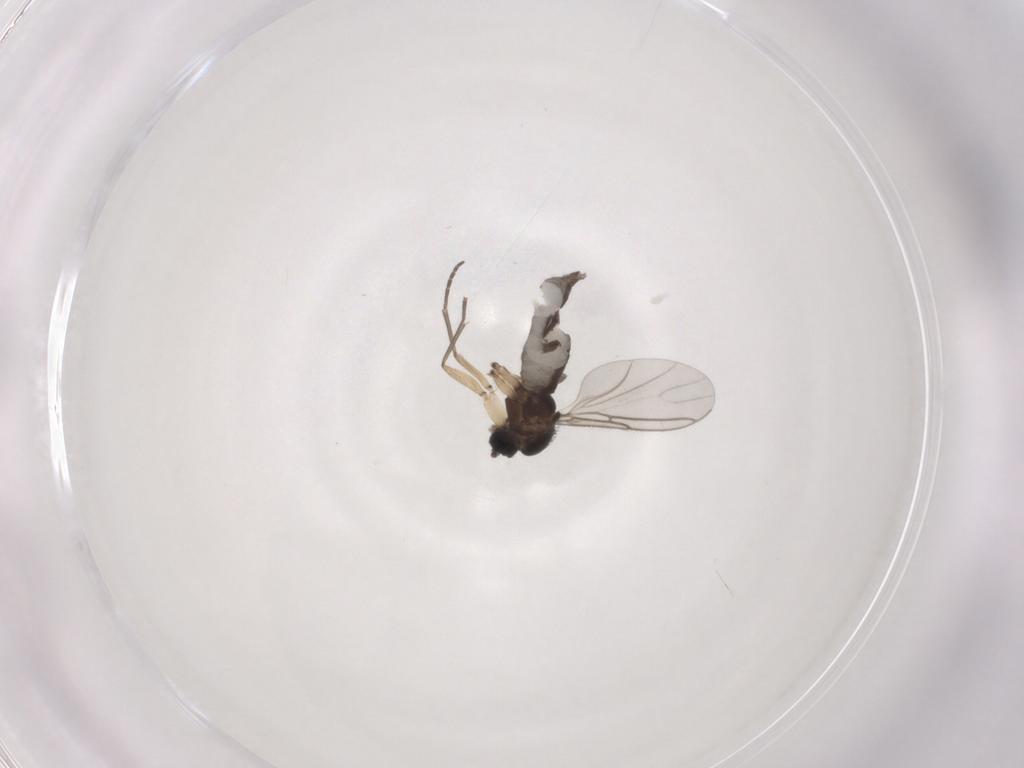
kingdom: Animalia
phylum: Arthropoda
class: Insecta
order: Diptera
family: Sciaridae
